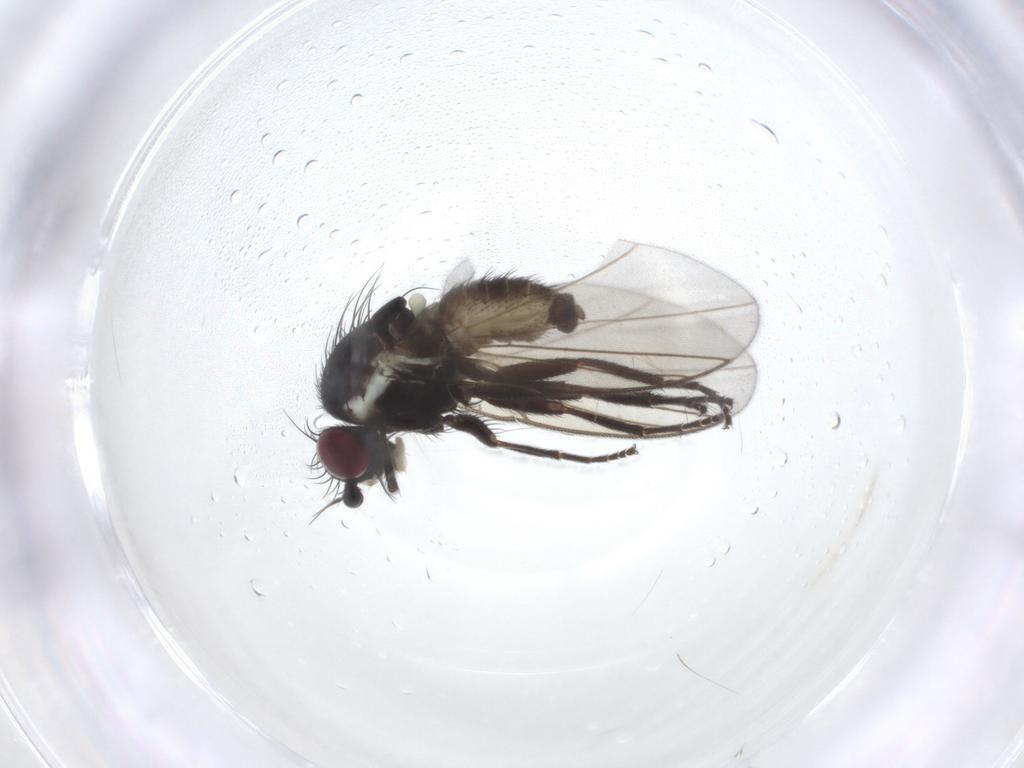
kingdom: Animalia
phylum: Arthropoda
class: Insecta
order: Diptera
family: Agromyzidae
